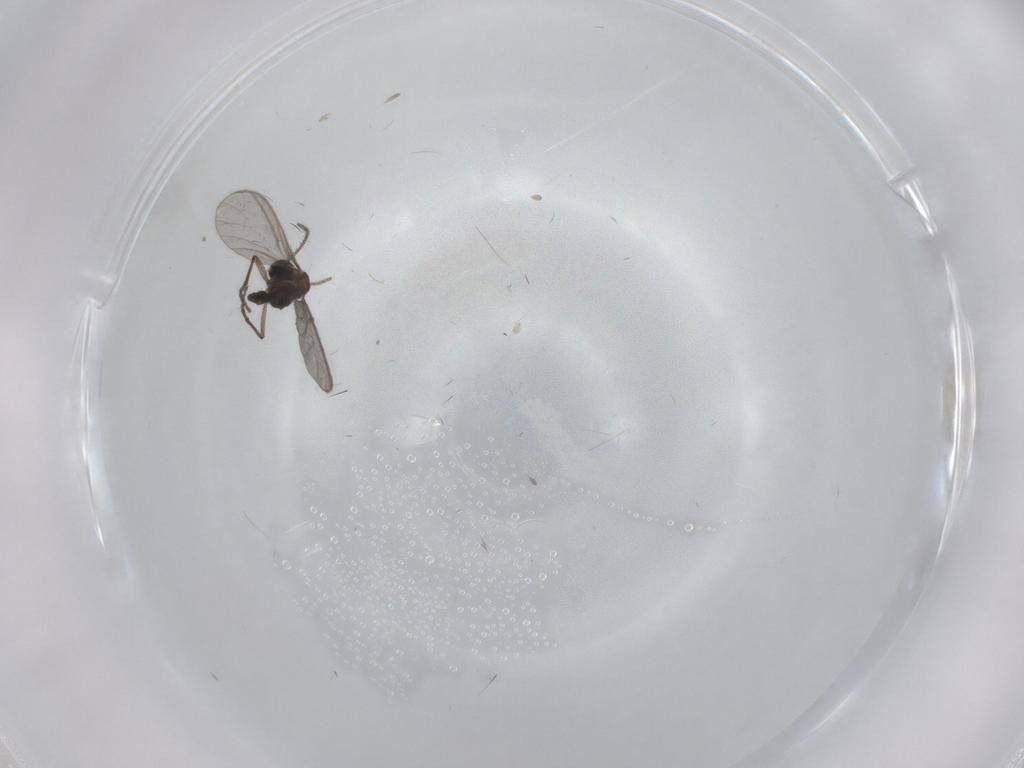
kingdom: Animalia
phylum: Arthropoda
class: Insecta
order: Diptera
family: Sciaridae
